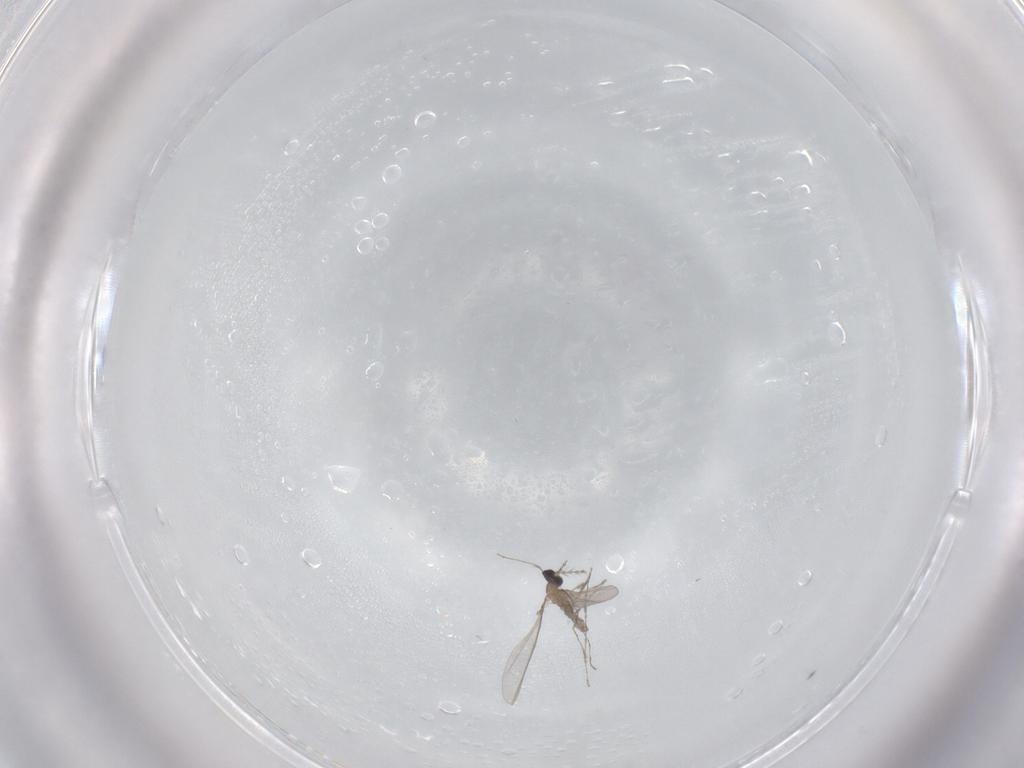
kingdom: Animalia
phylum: Arthropoda
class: Insecta
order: Diptera
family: Cecidomyiidae
